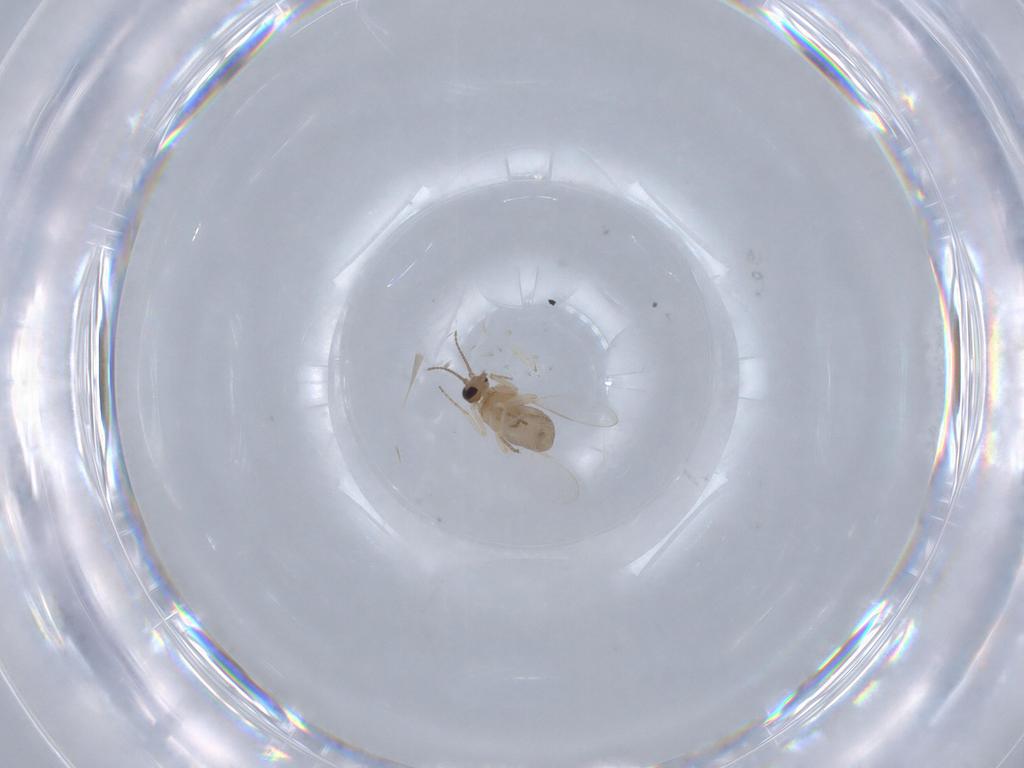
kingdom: Animalia
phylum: Arthropoda
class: Insecta
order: Diptera
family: Ceratopogonidae
